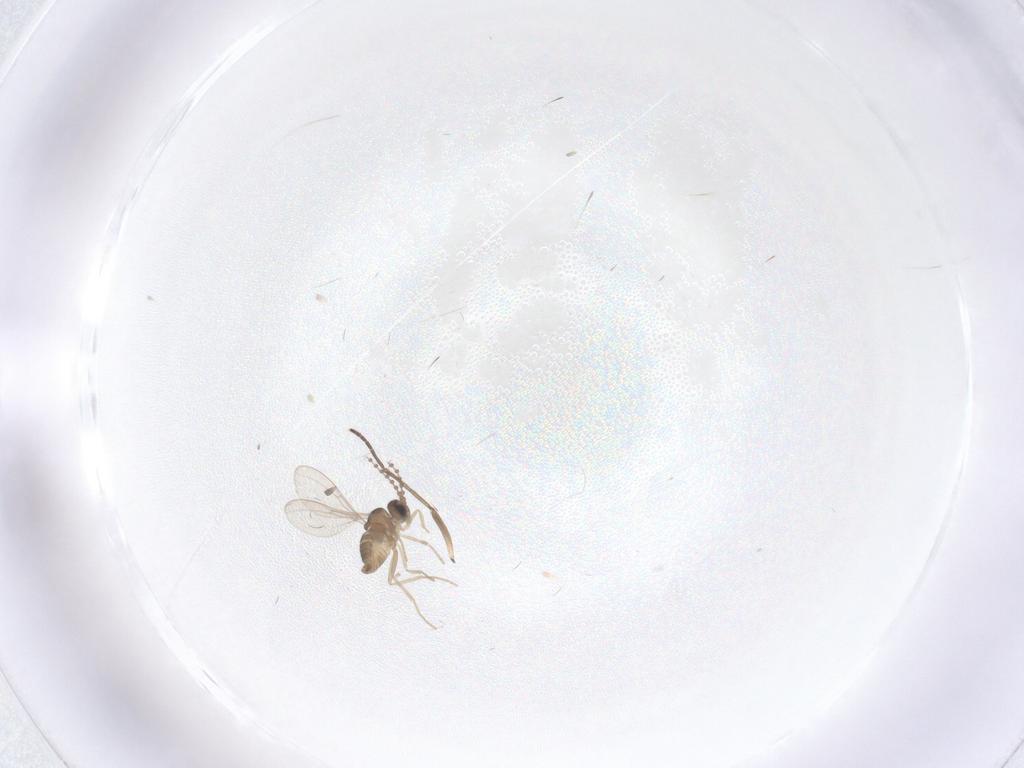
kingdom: Animalia
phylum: Arthropoda
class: Insecta
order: Diptera
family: Cecidomyiidae
